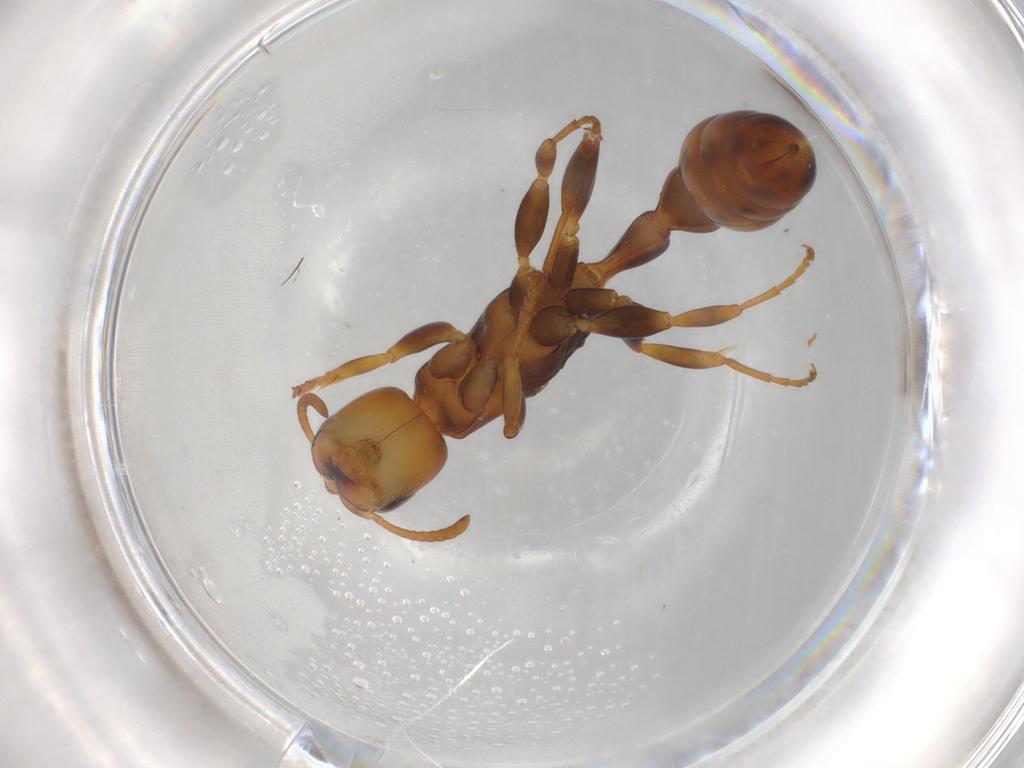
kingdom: Animalia
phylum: Arthropoda
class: Insecta
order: Hymenoptera
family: Formicidae
